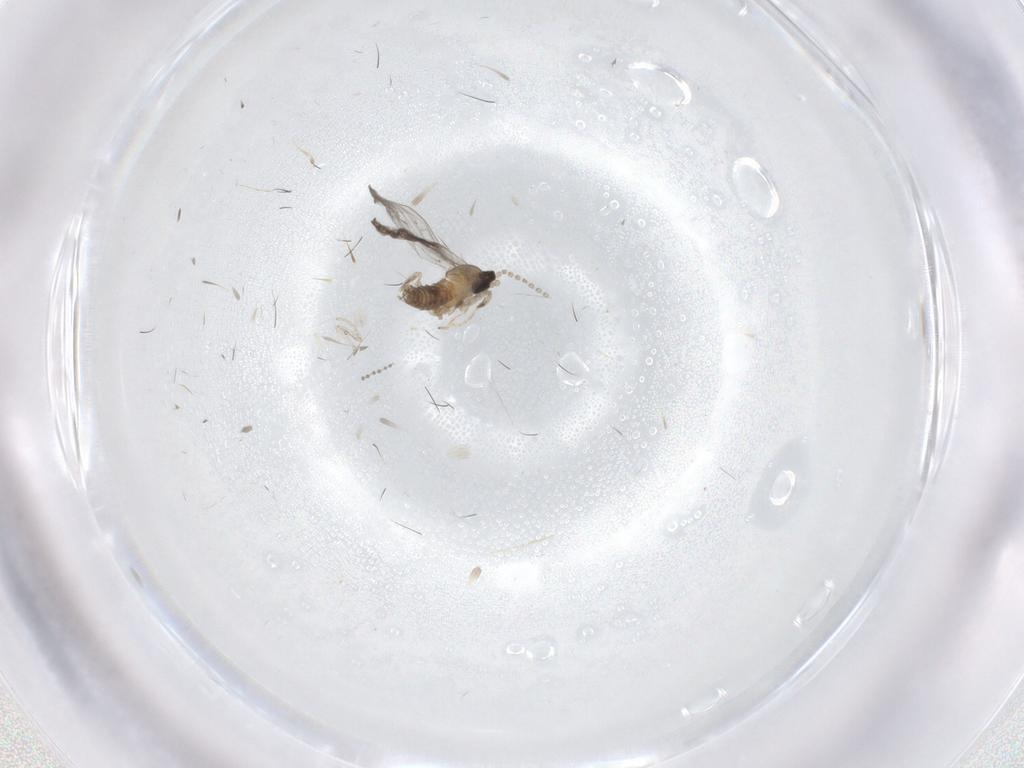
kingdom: Animalia
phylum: Arthropoda
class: Insecta
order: Diptera
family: Cecidomyiidae
